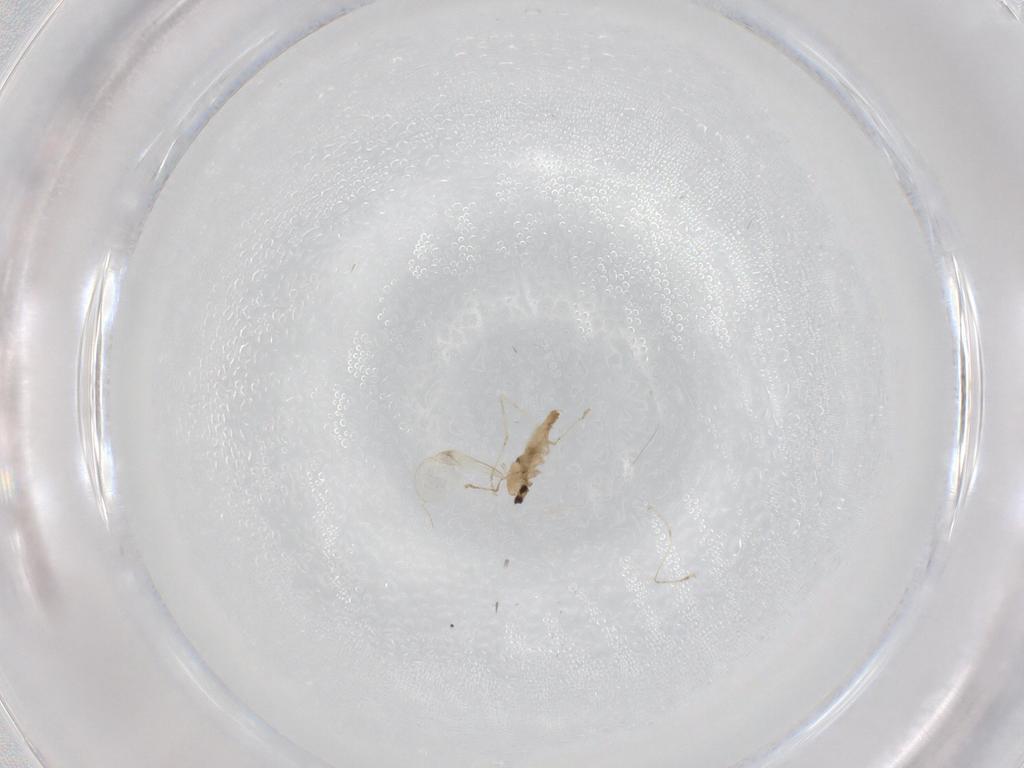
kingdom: Animalia
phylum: Arthropoda
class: Insecta
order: Diptera
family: Cecidomyiidae
